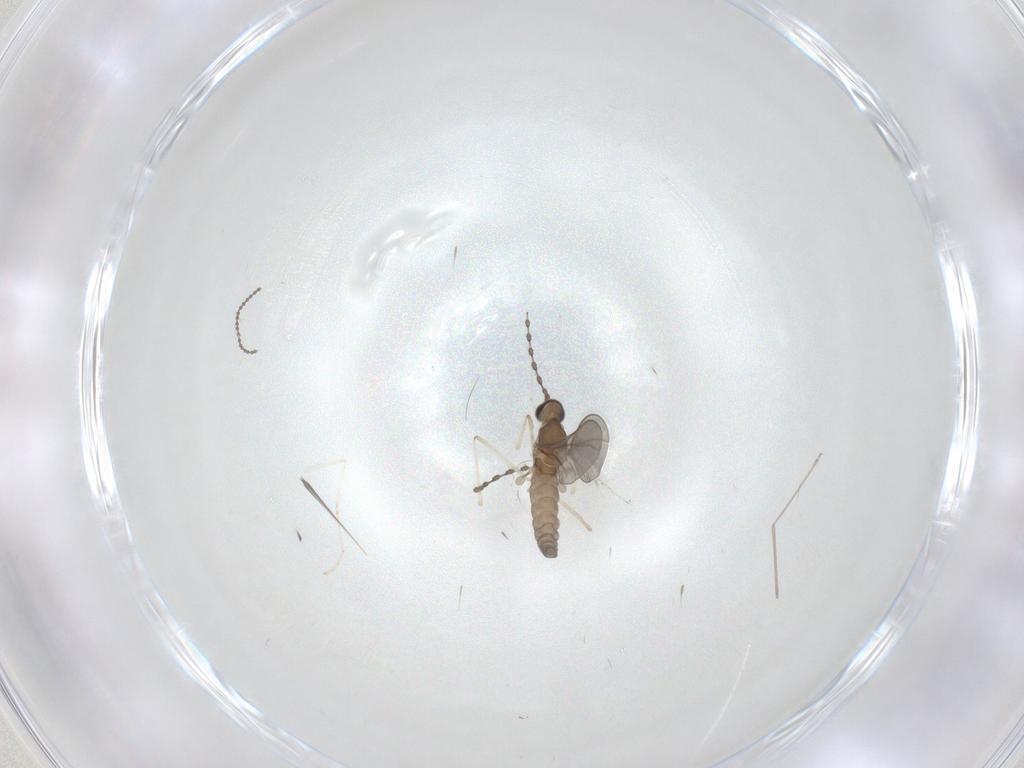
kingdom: Animalia
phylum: Arthropoda
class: Insecta
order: Diptera
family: Cecidomyiidae
